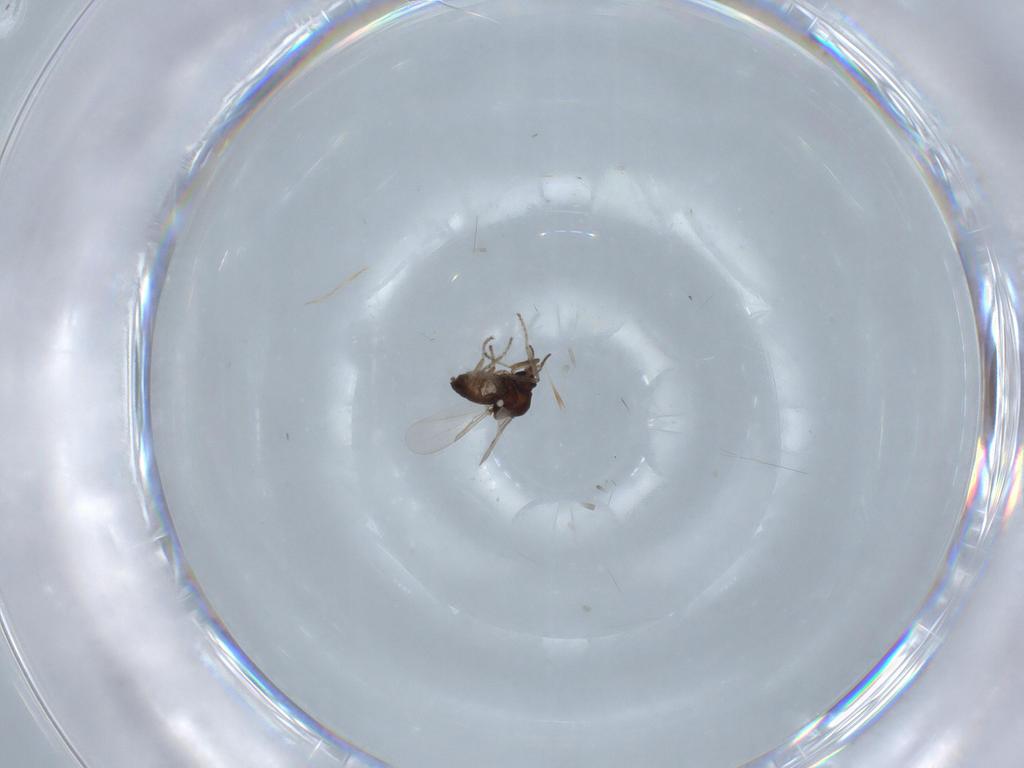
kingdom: Animalia
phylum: Arthropoda
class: Insecta
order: Diptera
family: Ceratopogonidae
